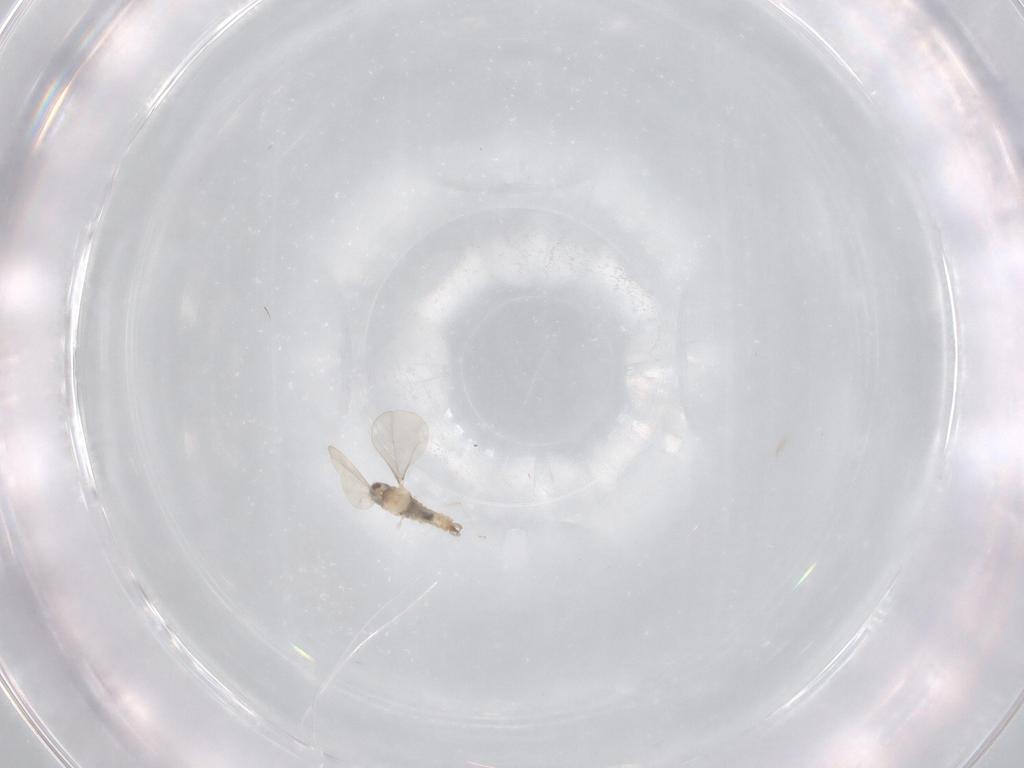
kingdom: Animalia
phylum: Arthropoda
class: Insecta
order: Diptera
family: Cecidomyiidae
